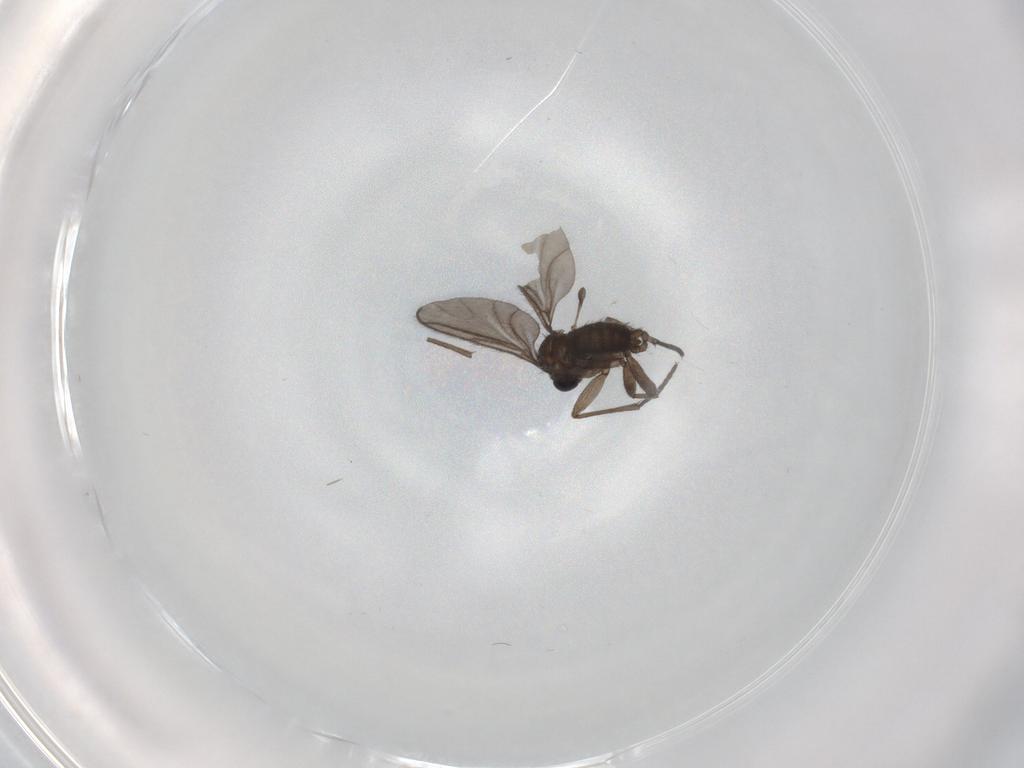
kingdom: Animalia
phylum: Arthropoda
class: Insecta
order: Diptera
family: Cecidomyiidae
